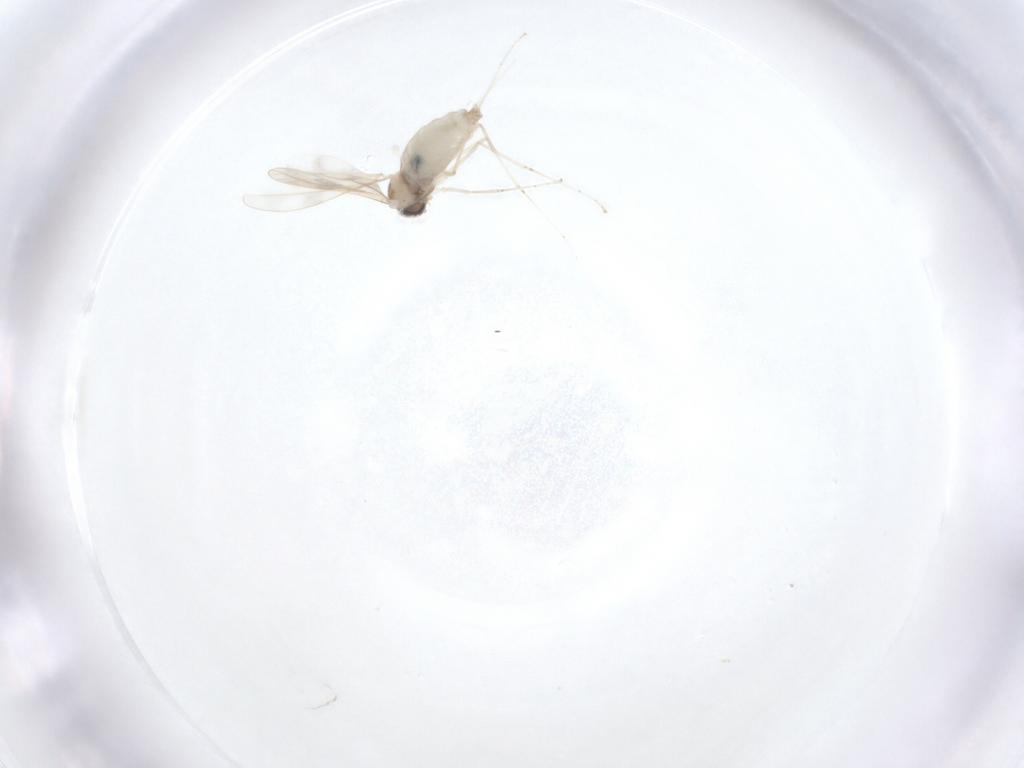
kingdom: Animalia
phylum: Arthropoda
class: Insecta
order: Diptera
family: Cecidomyiidae
